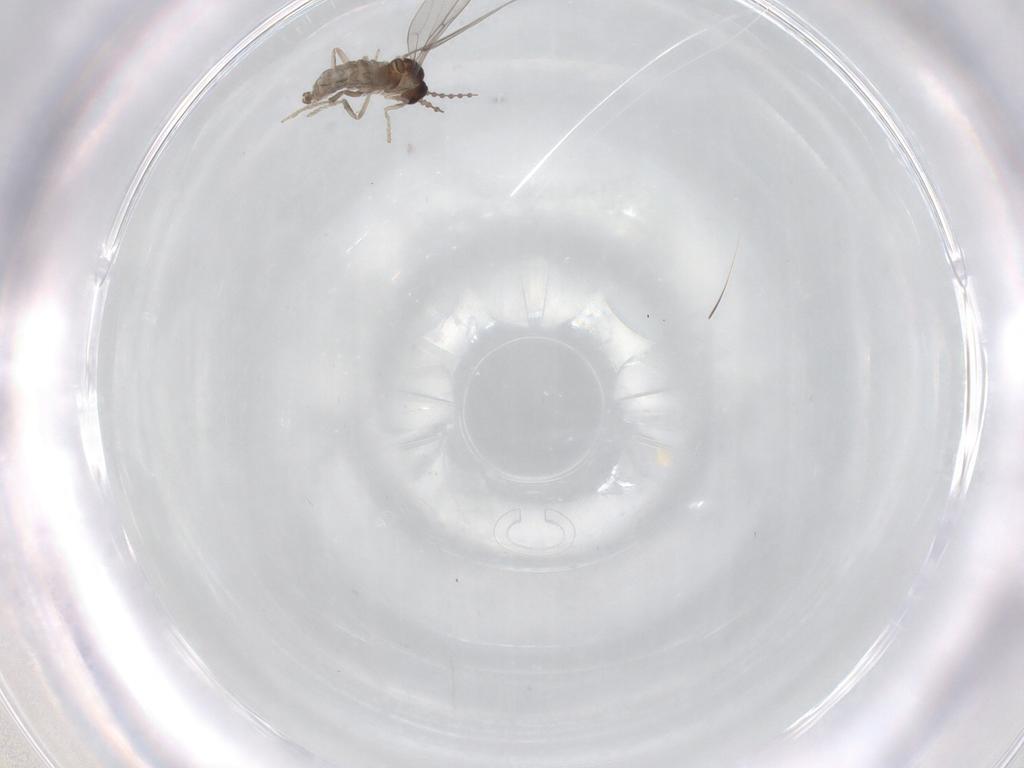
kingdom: Animalia
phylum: Arthropoda
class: Insecta
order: Diptera
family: Cecidomyiidae
